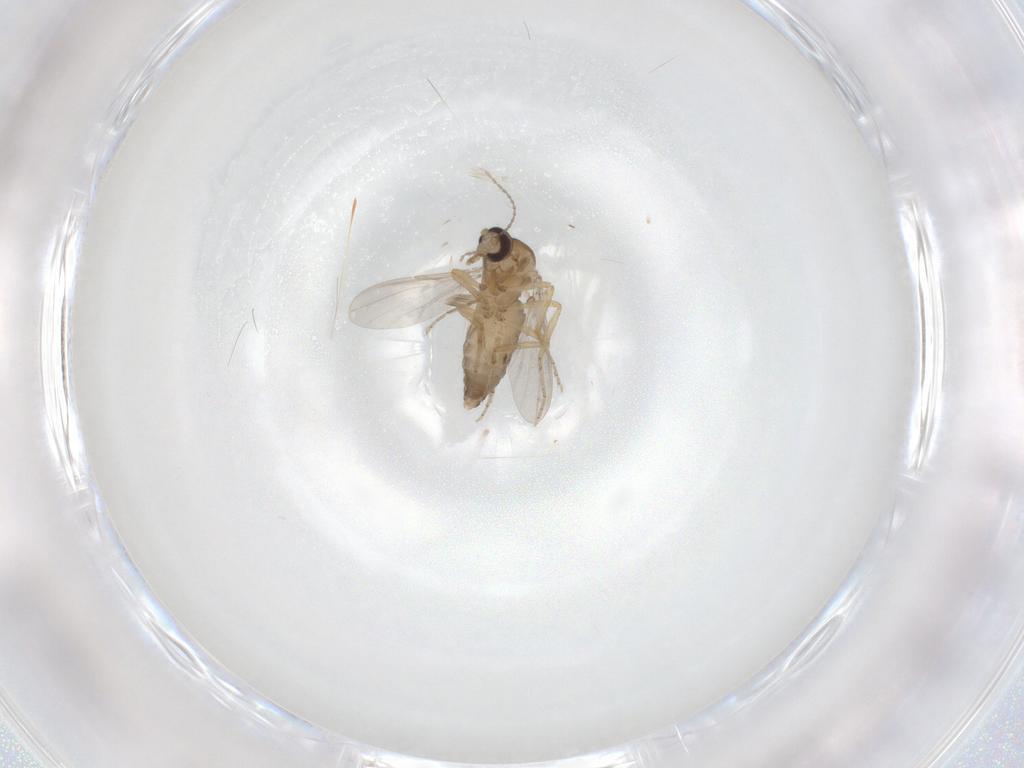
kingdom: Animalia
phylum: Arthropoda
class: Insecta
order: Diptera
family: Ceratopogonidae
